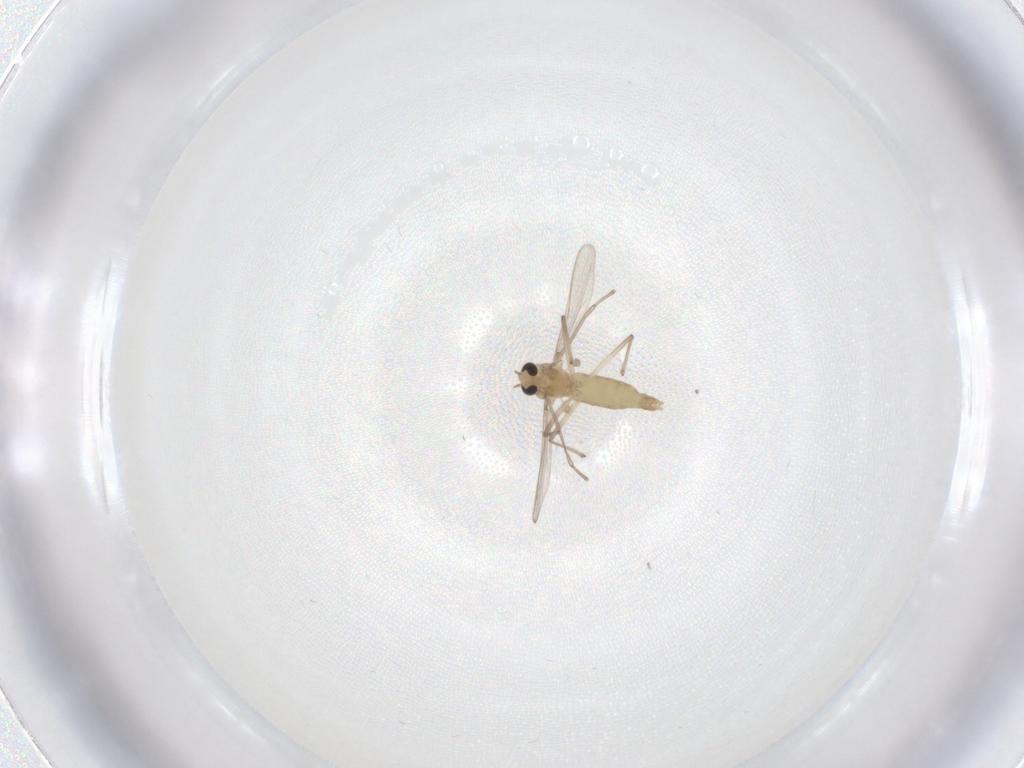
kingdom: Animalia
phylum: Arthropoda
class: Insecta
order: Diptera
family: Chironomidae
